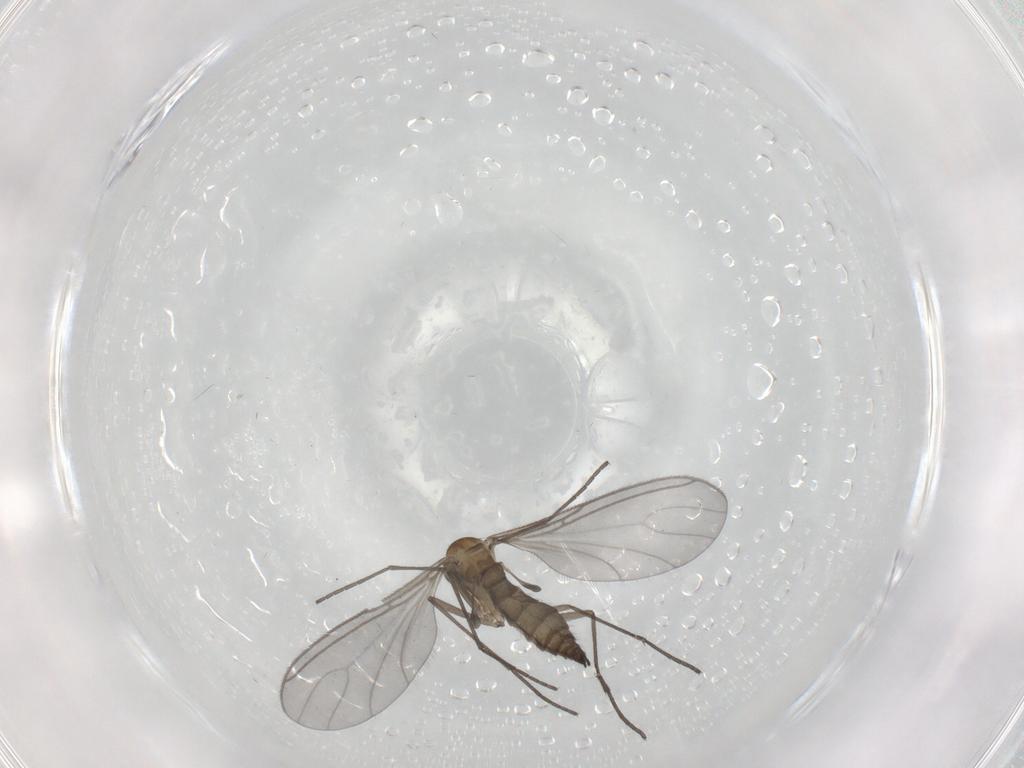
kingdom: Animalia
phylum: Arthropoda
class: Insecta
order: Diptera
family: Sciaridae
